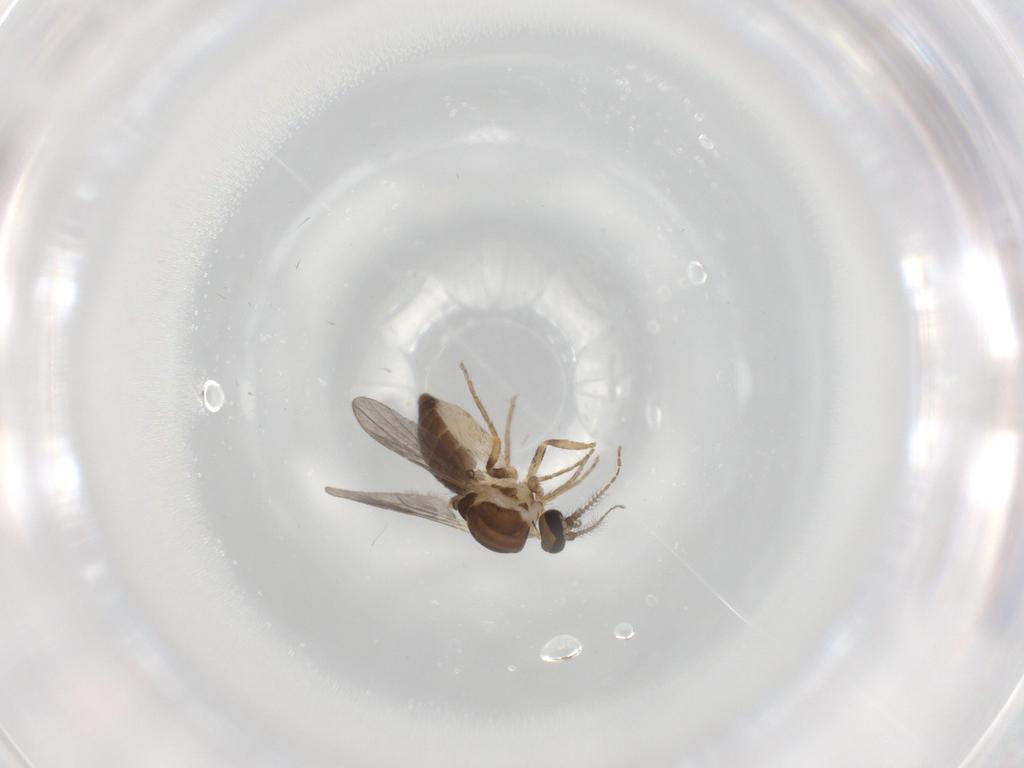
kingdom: Animalia
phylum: Arthropoda
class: Insecta
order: Diptera
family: Ceratopogonidae
